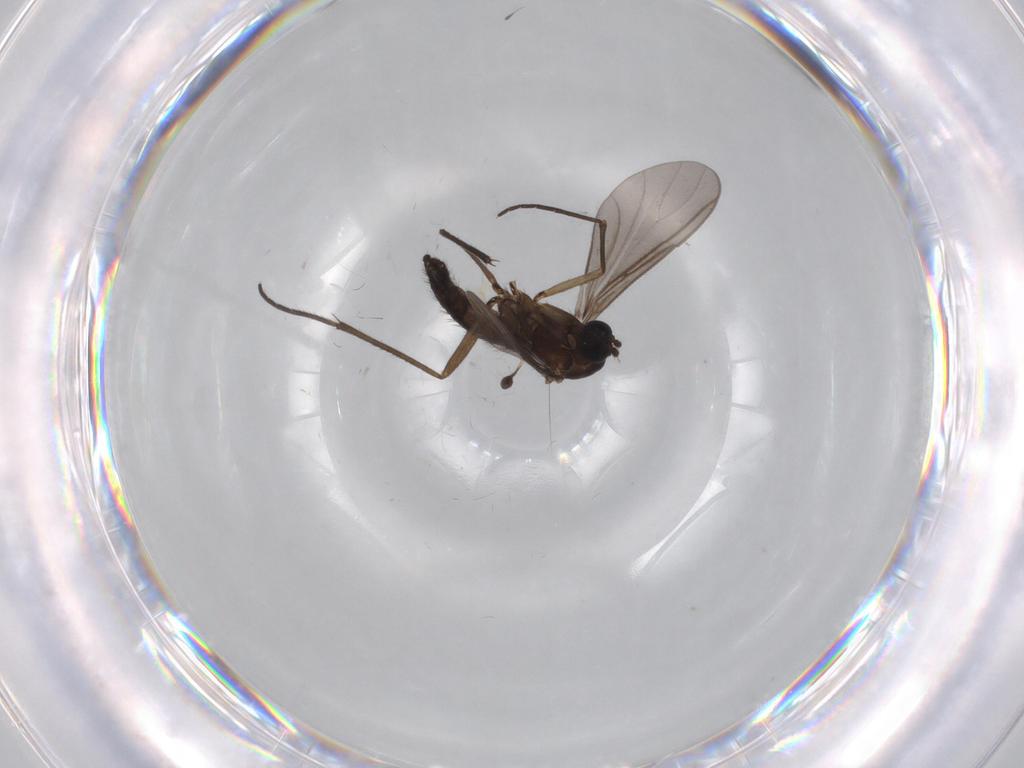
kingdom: Animalia
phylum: Arthropoda
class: Insecta
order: Diptera
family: Sciaridae
